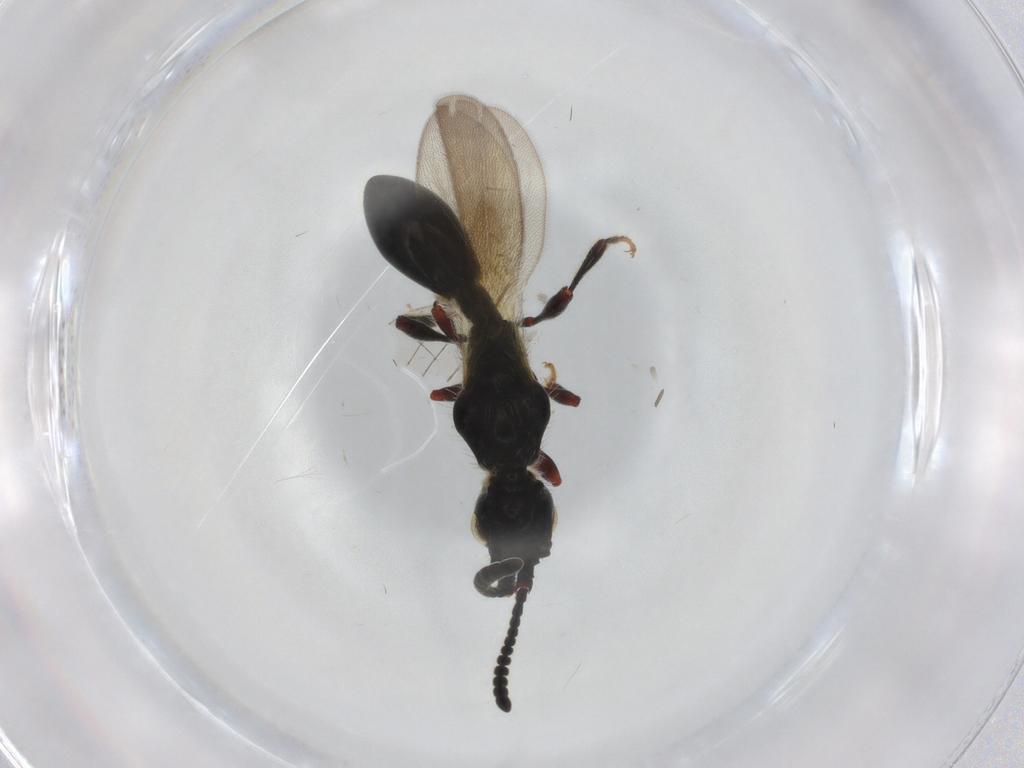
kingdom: Animalia
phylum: Arthropoda
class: Insecta
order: Hymenoptera
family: Diapriidae
